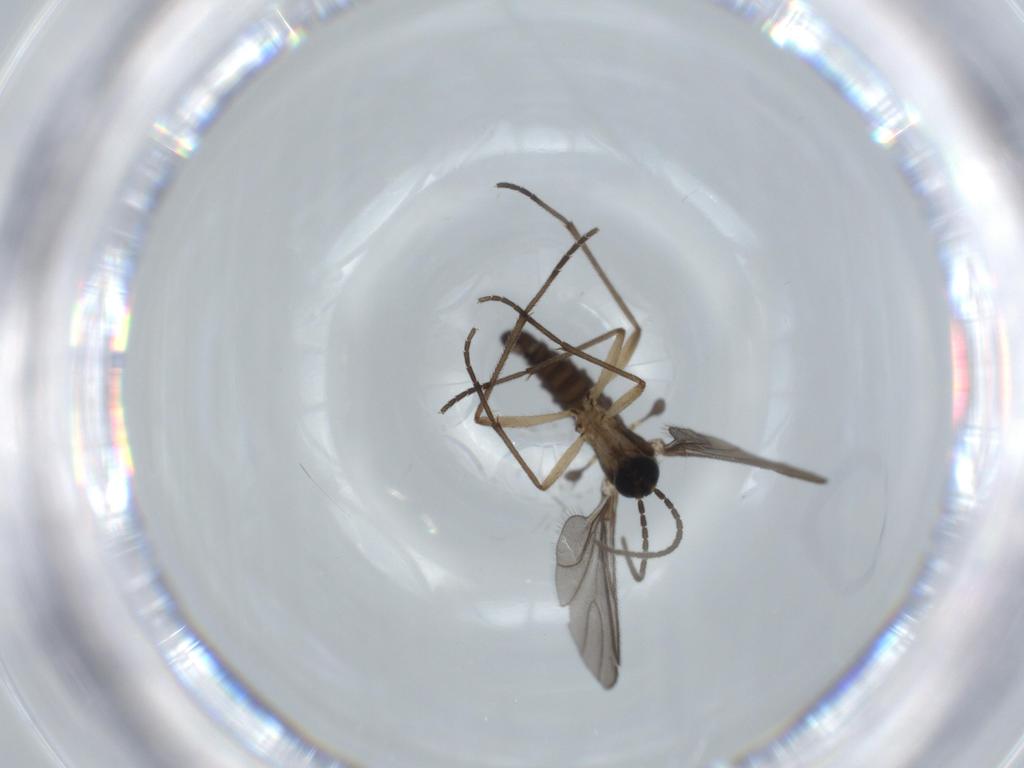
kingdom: Animalia
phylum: Arthropoda
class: Insecta
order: Diptera
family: Sciaridae
